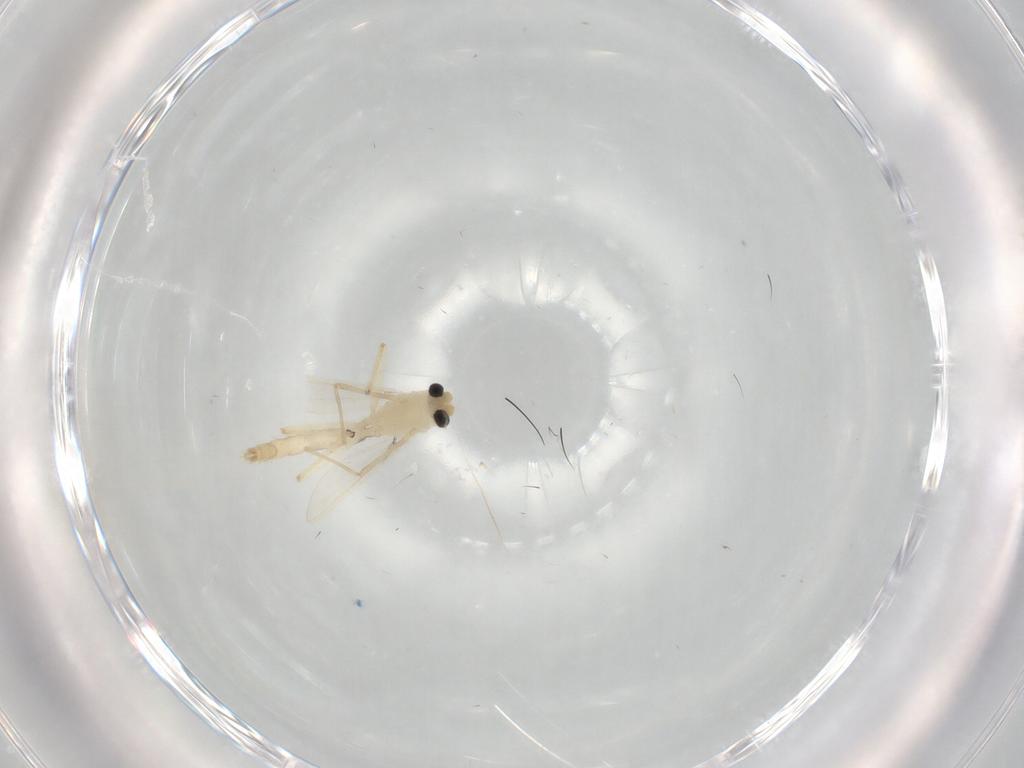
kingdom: Animalia
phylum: Arthropoda
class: Insecta
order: Diptera
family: Chironomidae
